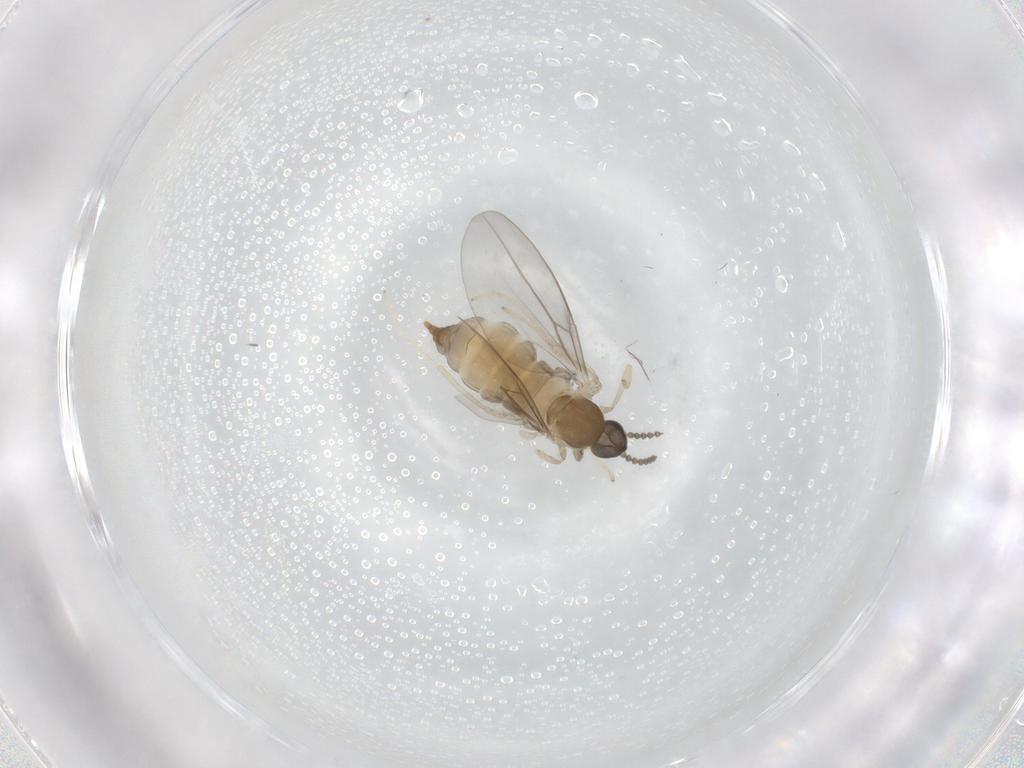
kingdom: Animalia
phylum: Arthropoda
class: Insecta
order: Diptera
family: Cecidomyiidae
